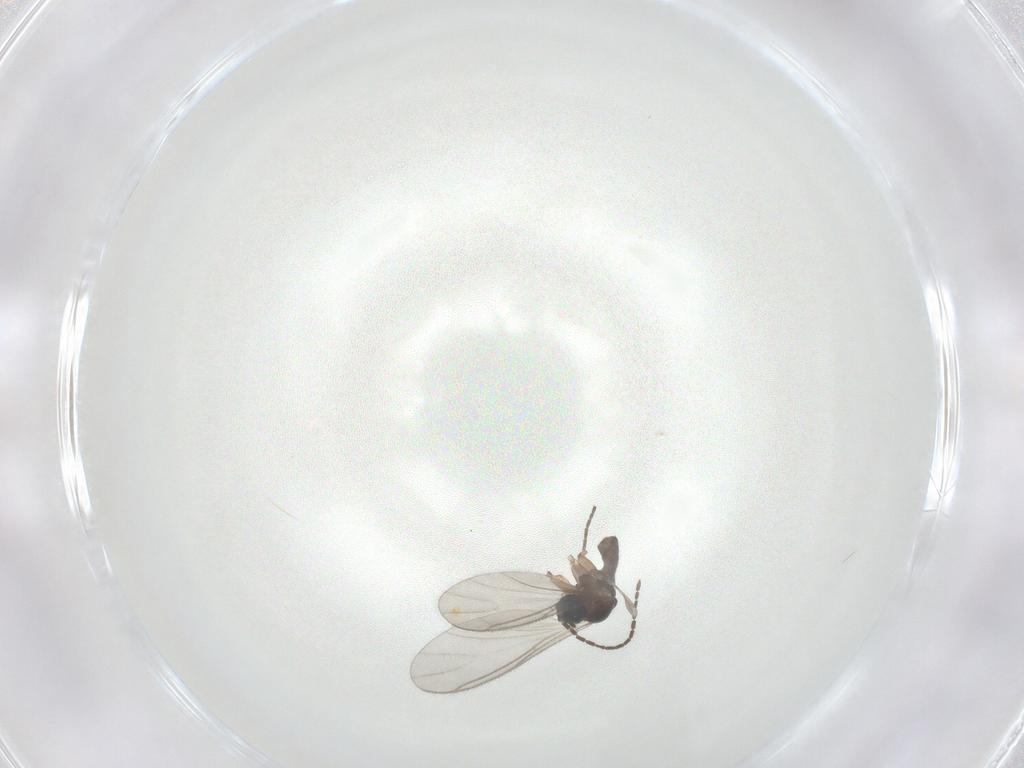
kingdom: Animalia
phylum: Arthropoda
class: Insecta
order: Diptera
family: Sciaridae
